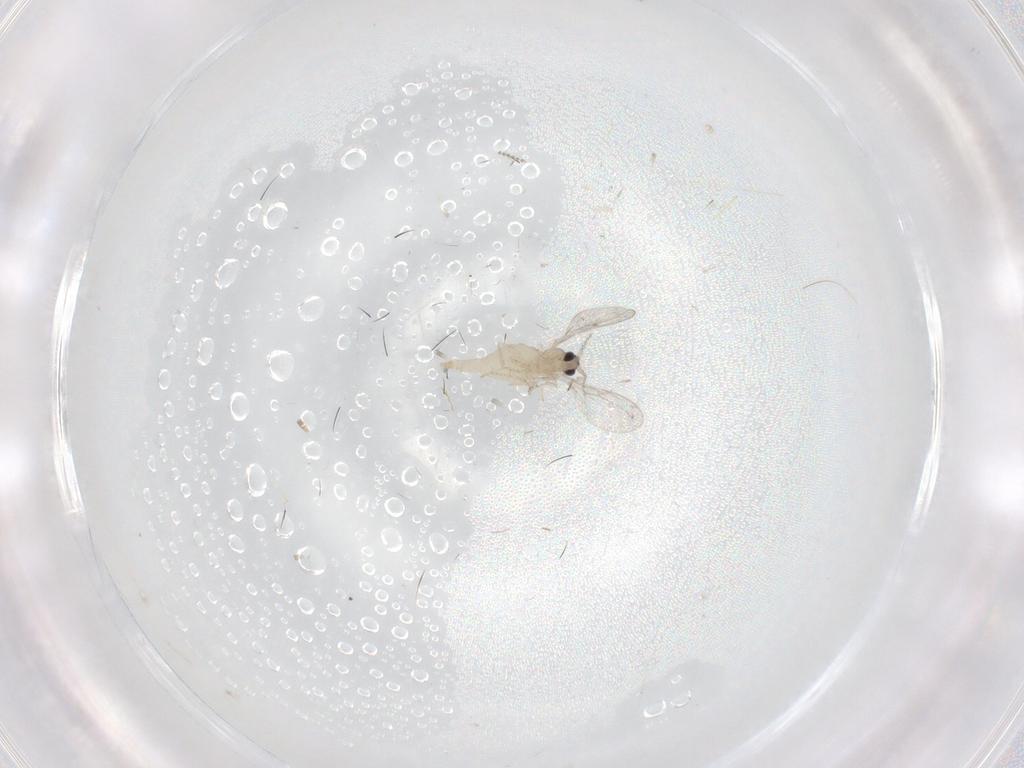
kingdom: Animalia
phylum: Arthropoda
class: Insecta
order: Diptera
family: Cecidomyiidae
